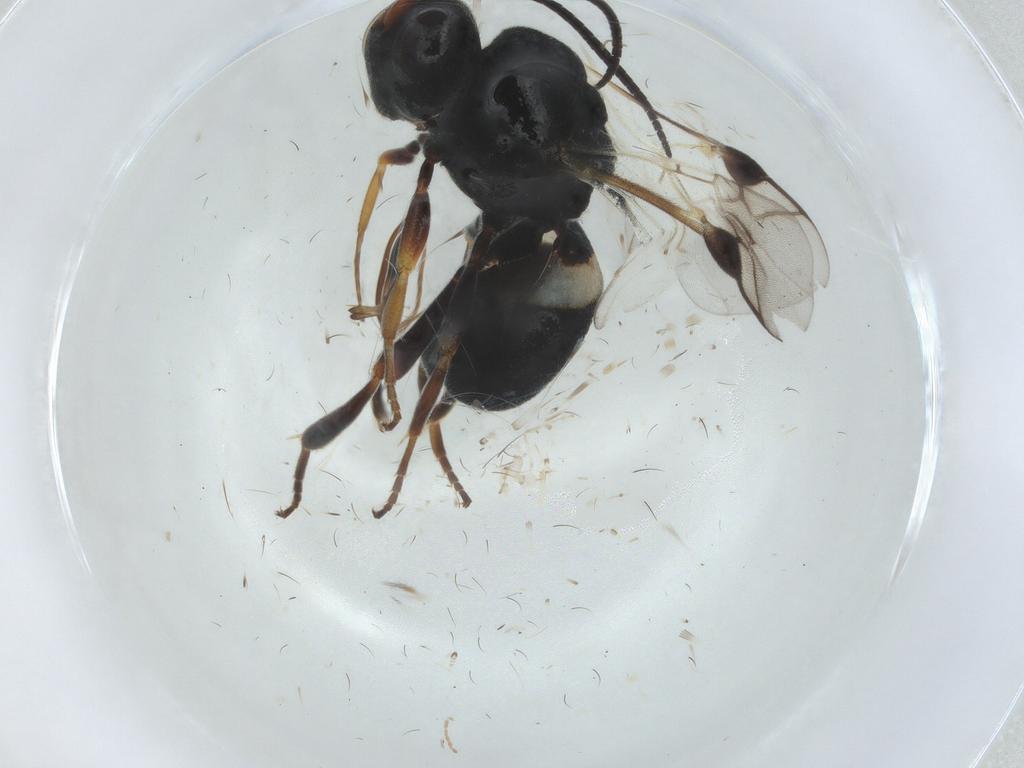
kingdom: Animalia
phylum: Arthropoda
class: Insecta
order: Hymenoptera
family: Braconidae
